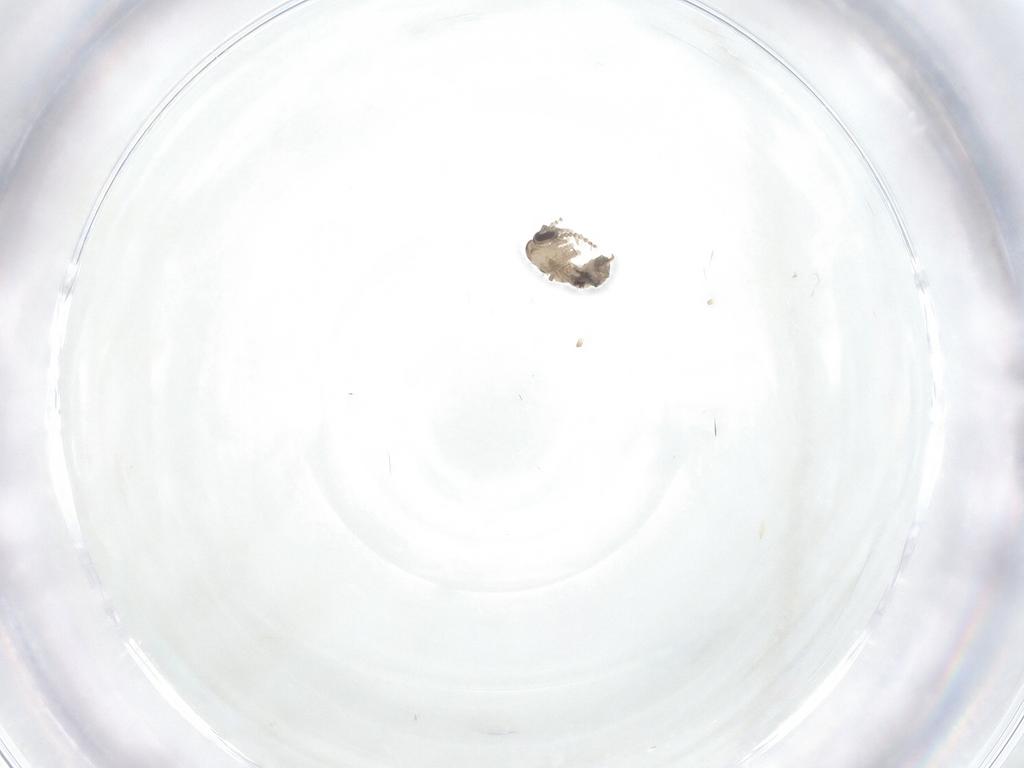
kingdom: Animalia
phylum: Arthropoda
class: Insecta
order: Diptera
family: Psychodidae
